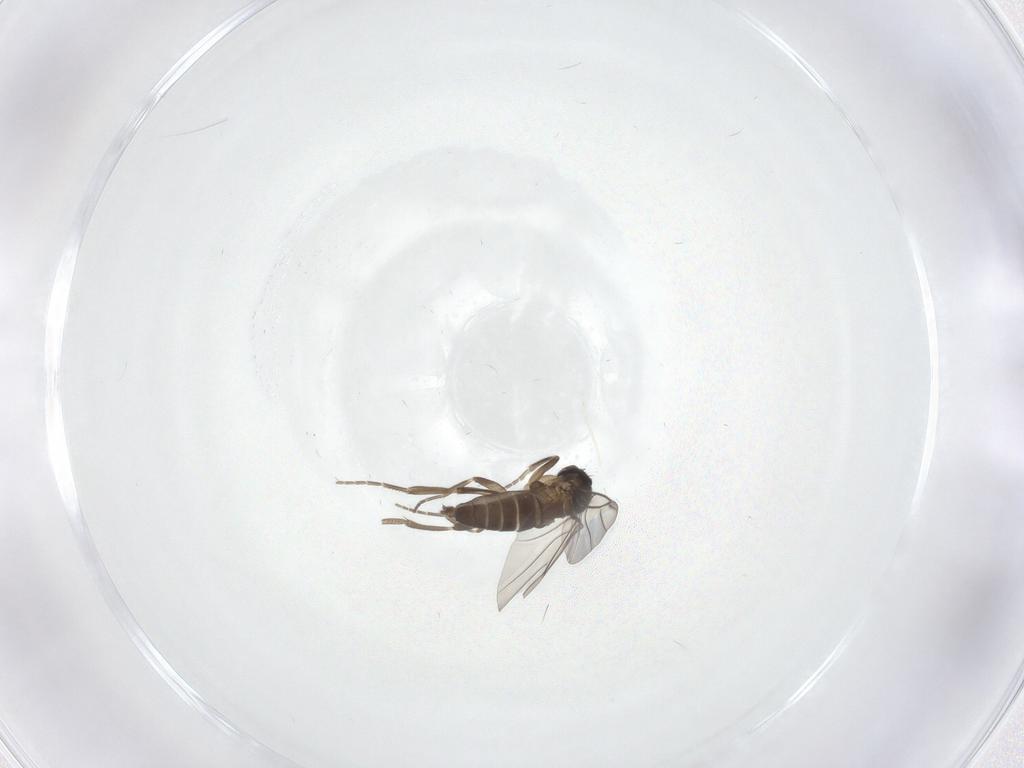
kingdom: Animalia
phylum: Arthropoda
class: Insecta
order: Diptera
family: Phoridae
